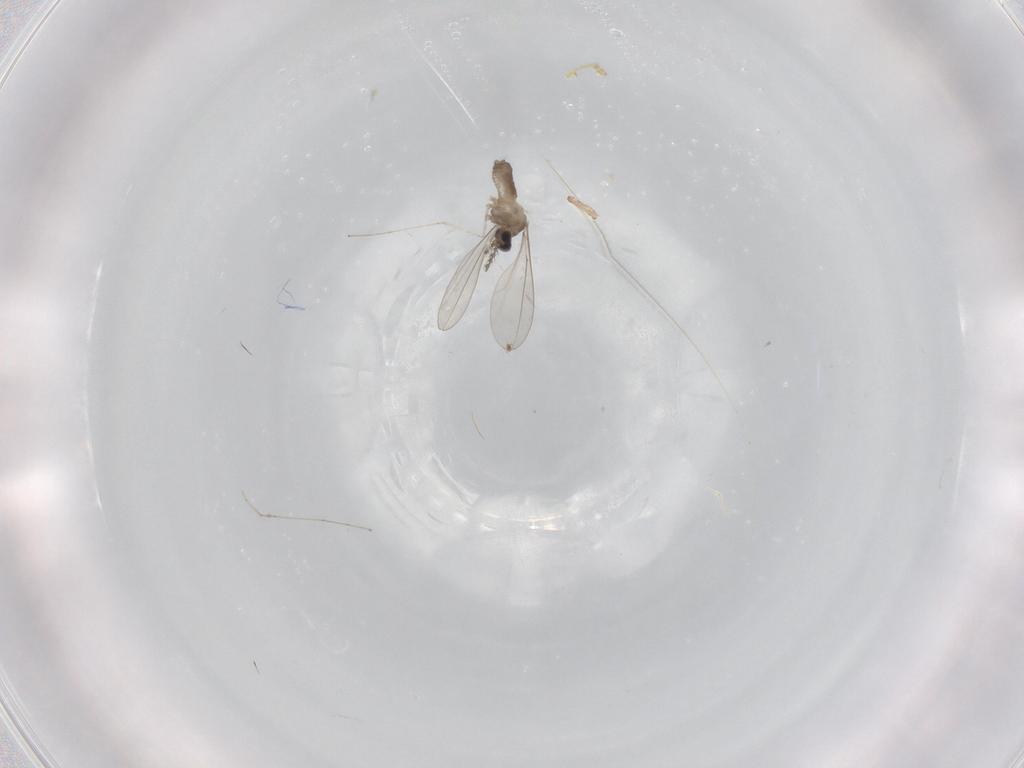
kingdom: Animalia
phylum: Arthropoda
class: Insecta
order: Diptera
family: Cecidomyiidae
